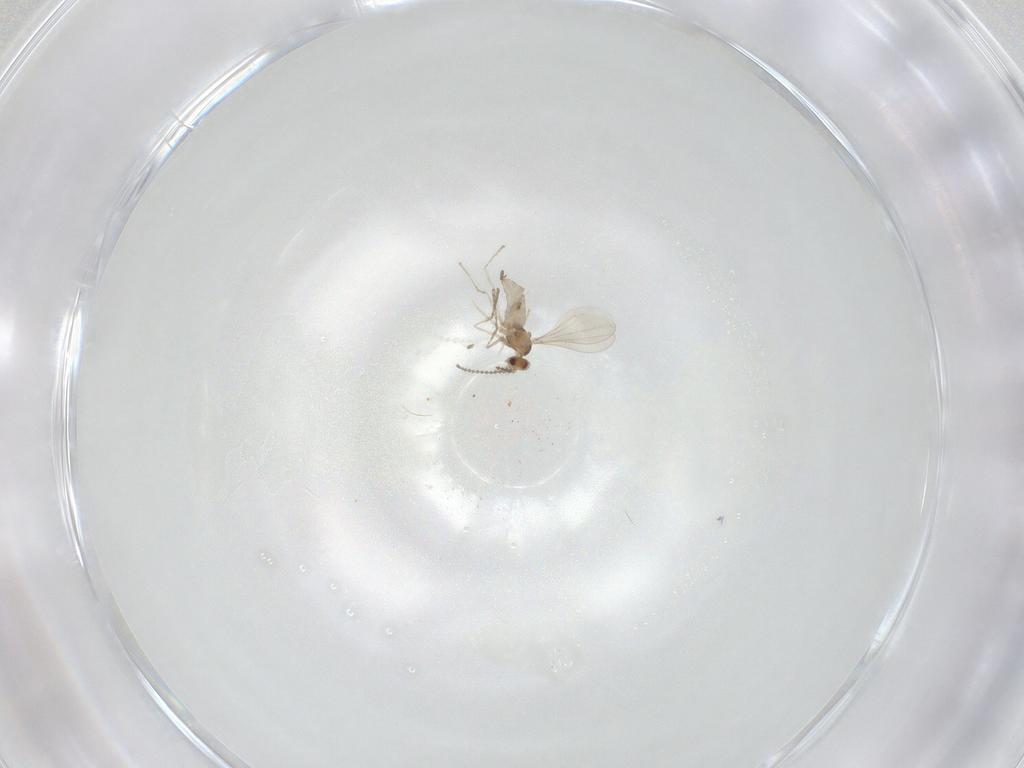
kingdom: Animalia
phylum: Arthropoda
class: Insecta
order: Diptera
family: Cecidomyiidae
